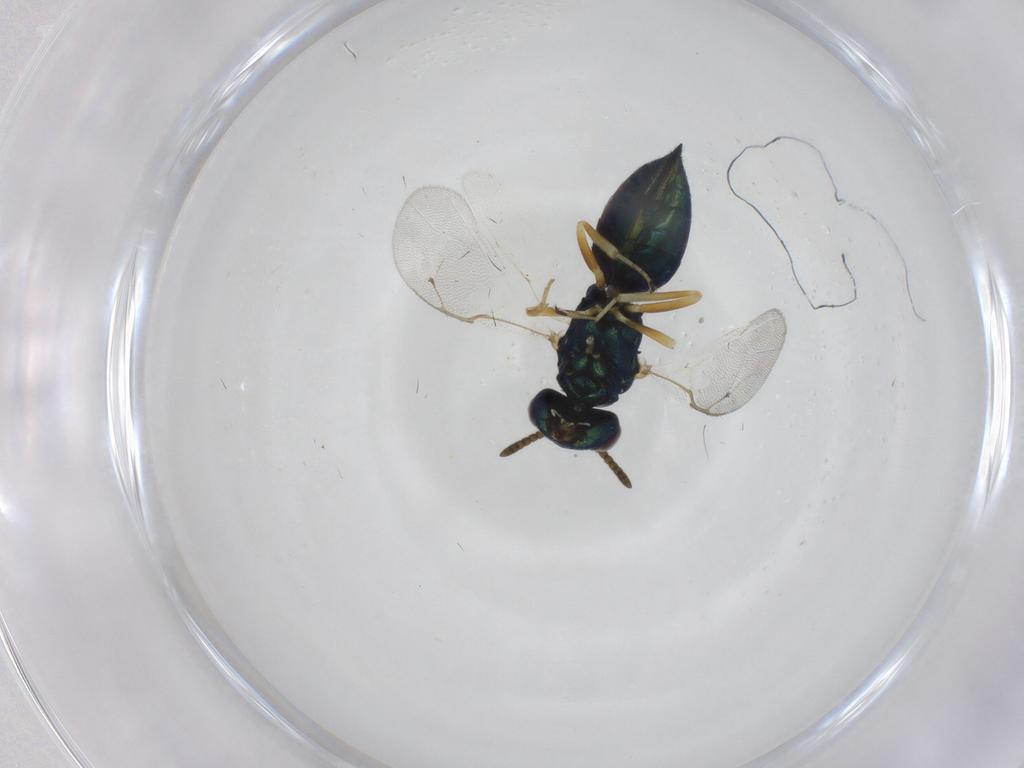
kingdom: Animalia
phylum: Arthropoda
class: Insecta
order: Hymenoptera
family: Pteromalidae
